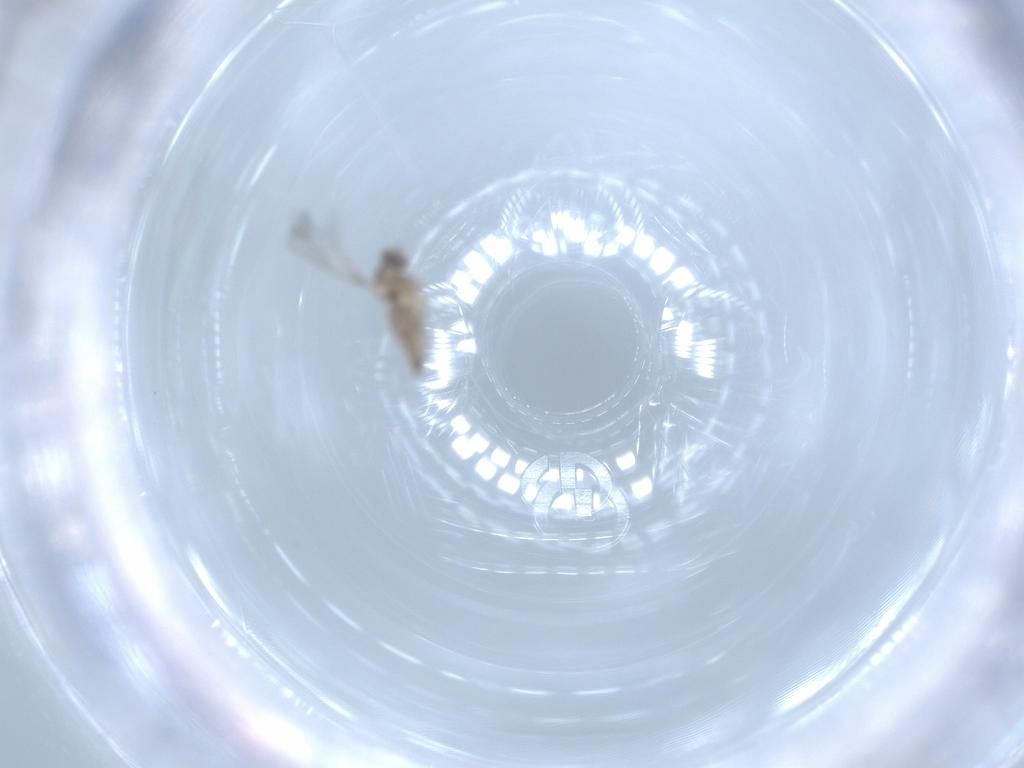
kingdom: Animalia
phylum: Arthropoda
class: Insecta
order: Diptera
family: Cecidomyiidae
